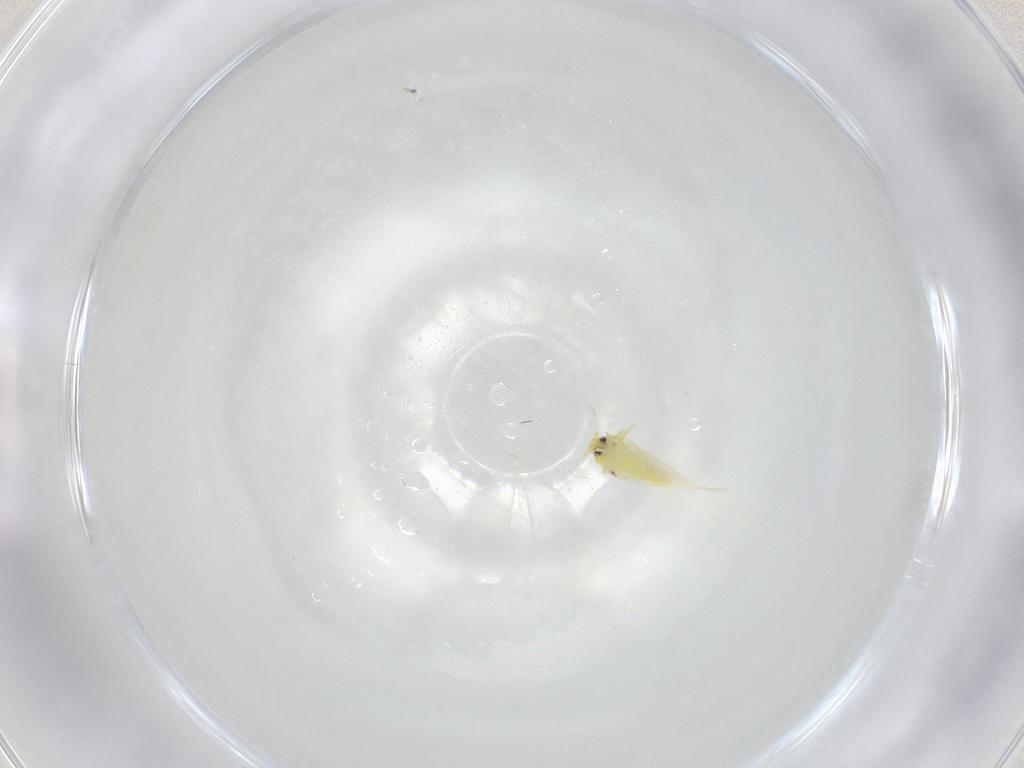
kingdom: Animalia
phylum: Arthropoda
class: Insecta
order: Hemiptera
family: Aleyrodidae
